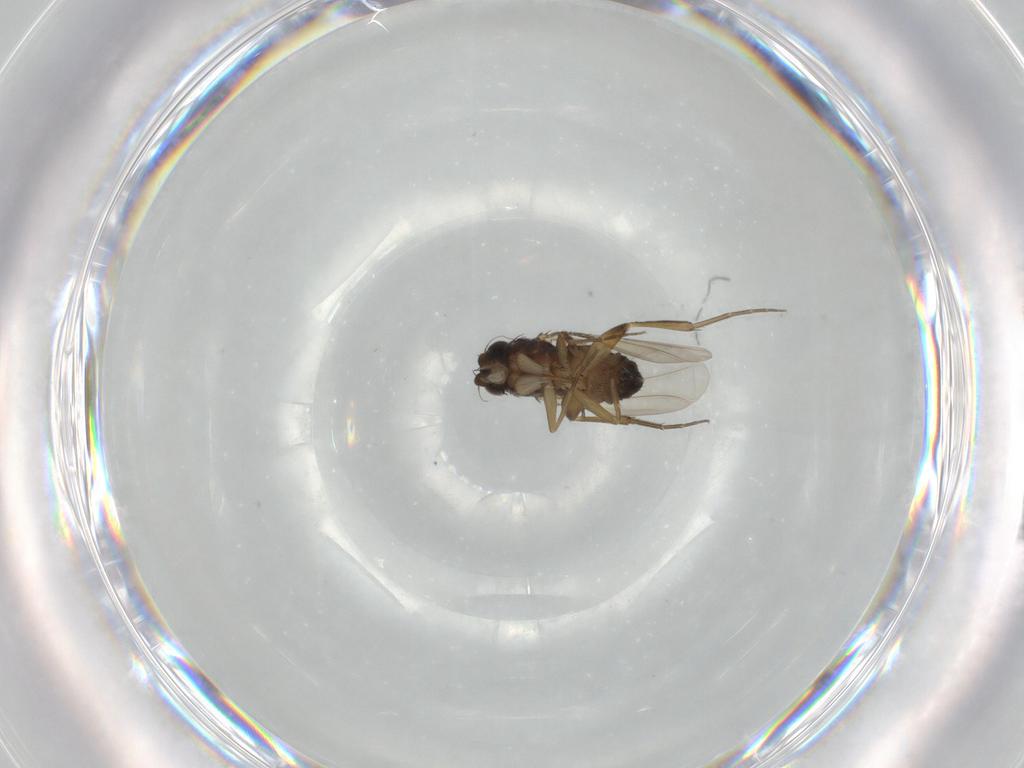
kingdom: Animalia
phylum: Arthropoda
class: Insecta
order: Diptera
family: Phoridae
